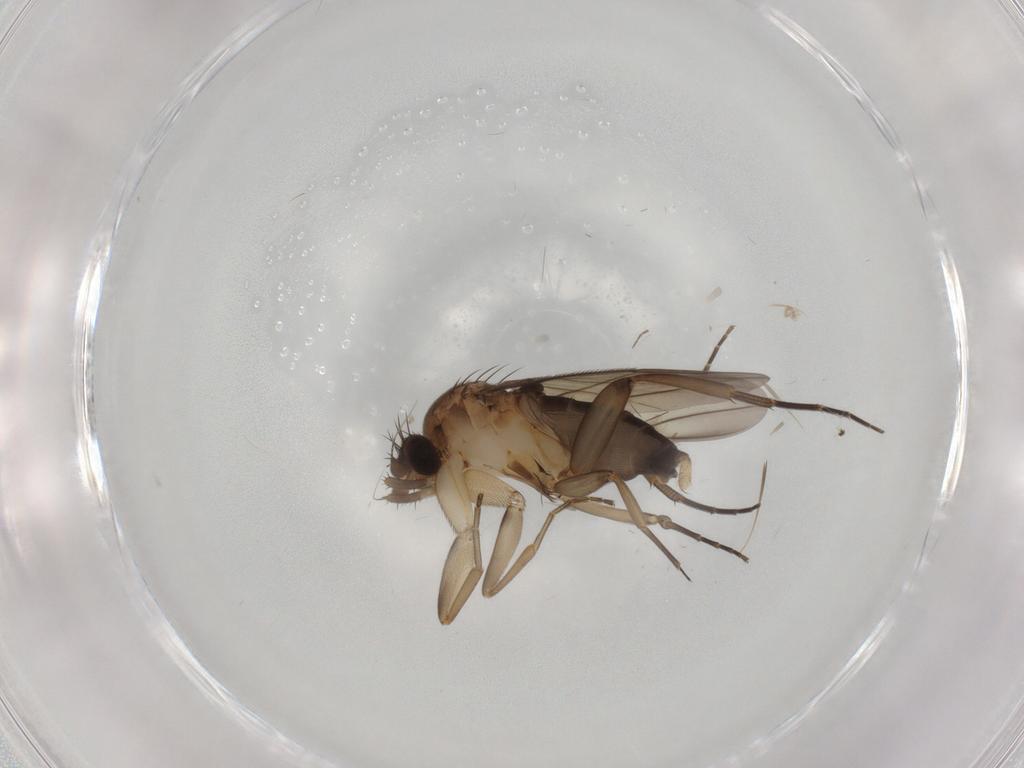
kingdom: Animalia
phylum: Arthropoda
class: Insecta
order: Diptera
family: Phoridae
